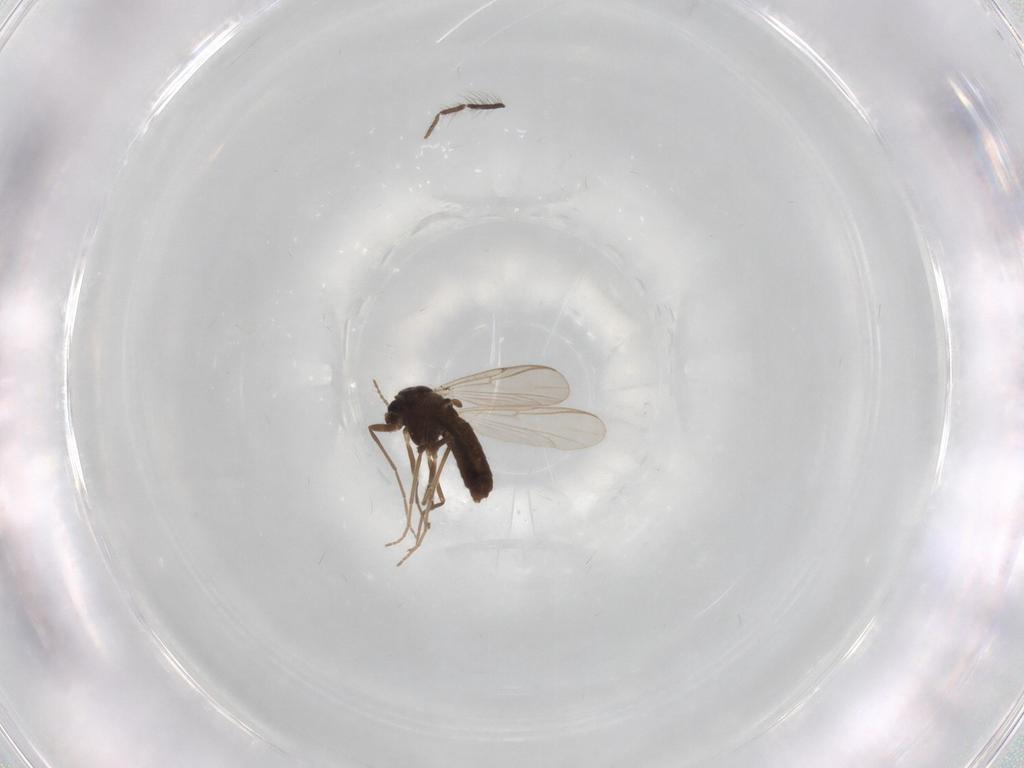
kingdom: Animalia
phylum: Arthropoda
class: Insecta
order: Diptera
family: Chironomidae
